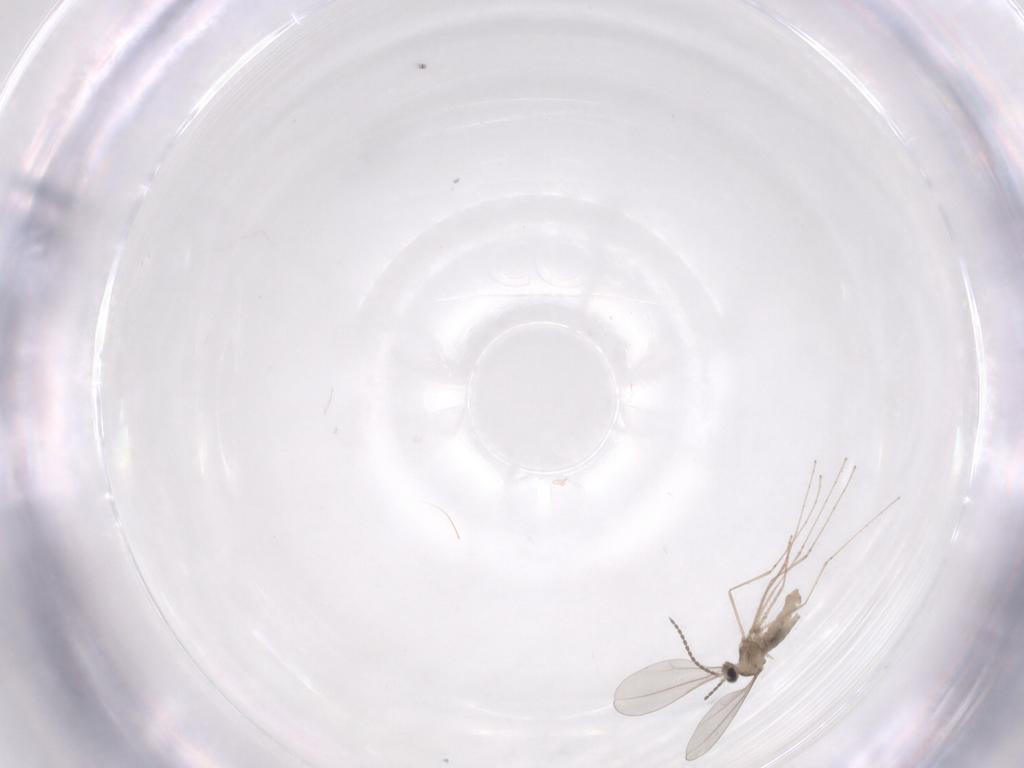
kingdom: Animalia
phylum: Arthropoda
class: Insecta
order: Diptera
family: Cecidomyiidae
